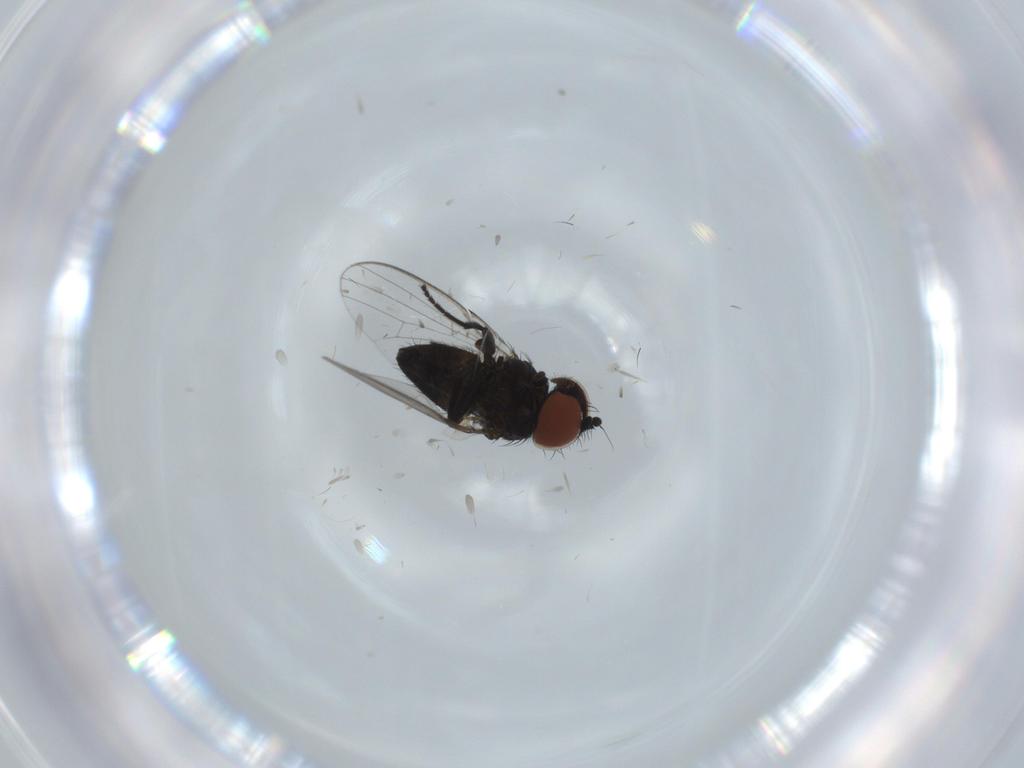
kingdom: Animalia
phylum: Arthropoda
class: Insecta
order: Diptera
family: Milichiidae
